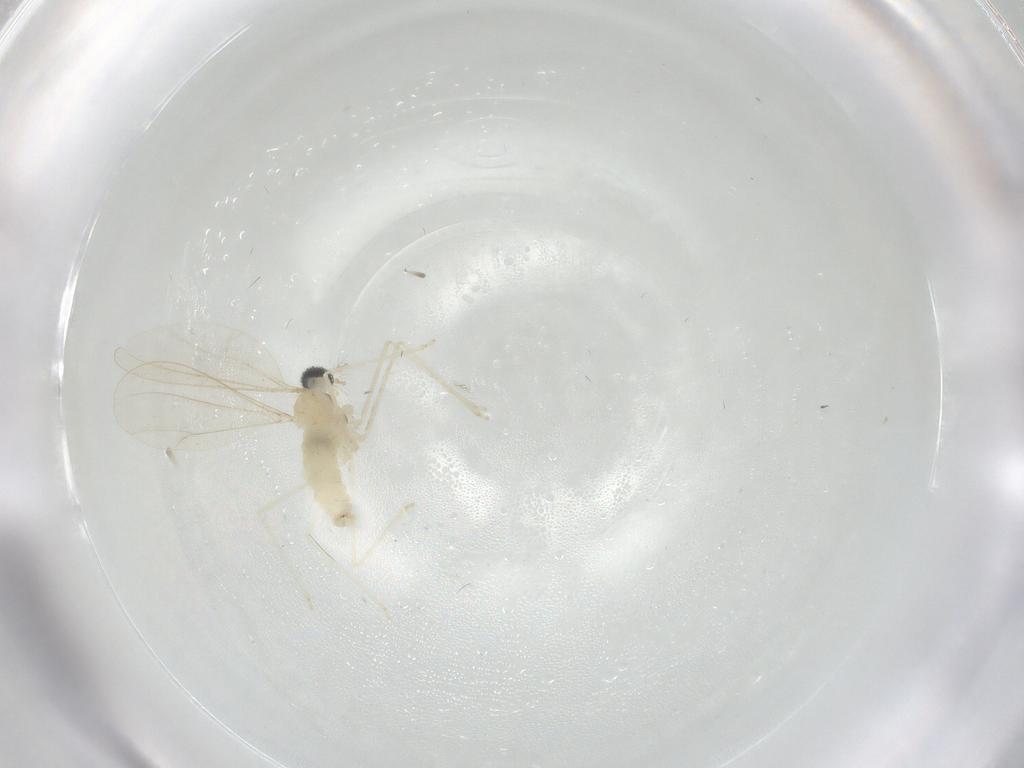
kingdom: Animalia
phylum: Arthropoda
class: Insecta
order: Diptera
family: Cecidomyiidae
